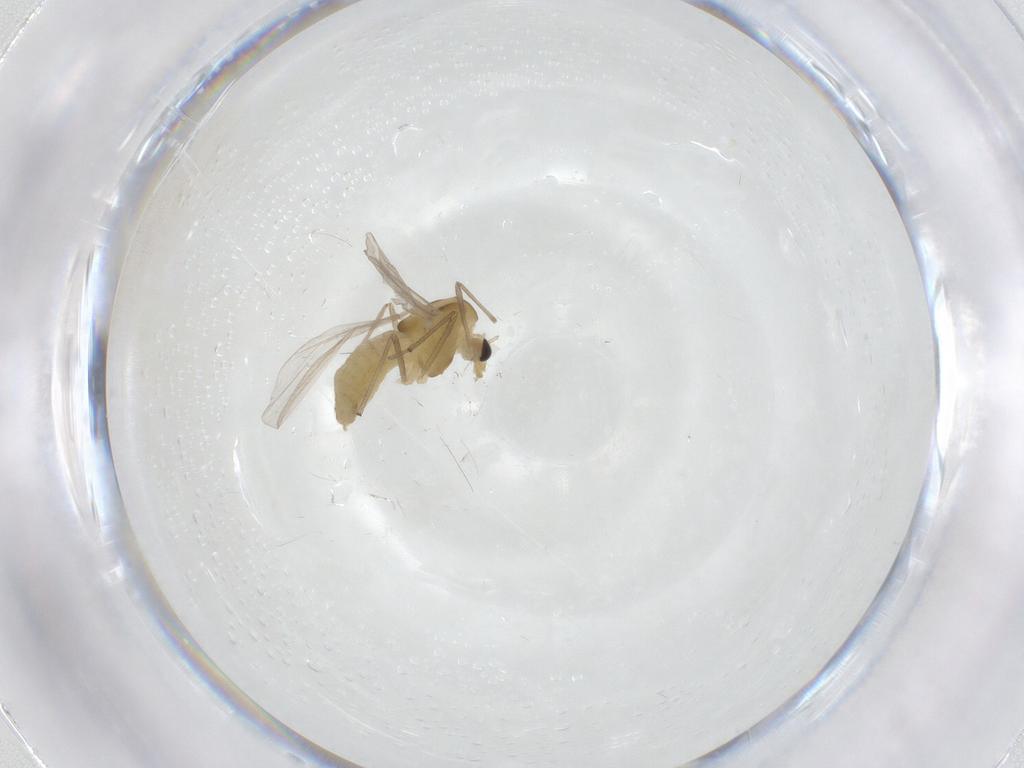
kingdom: Animalia
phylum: Arthropoda
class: Insecta
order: Diptera
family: Chironomidae
